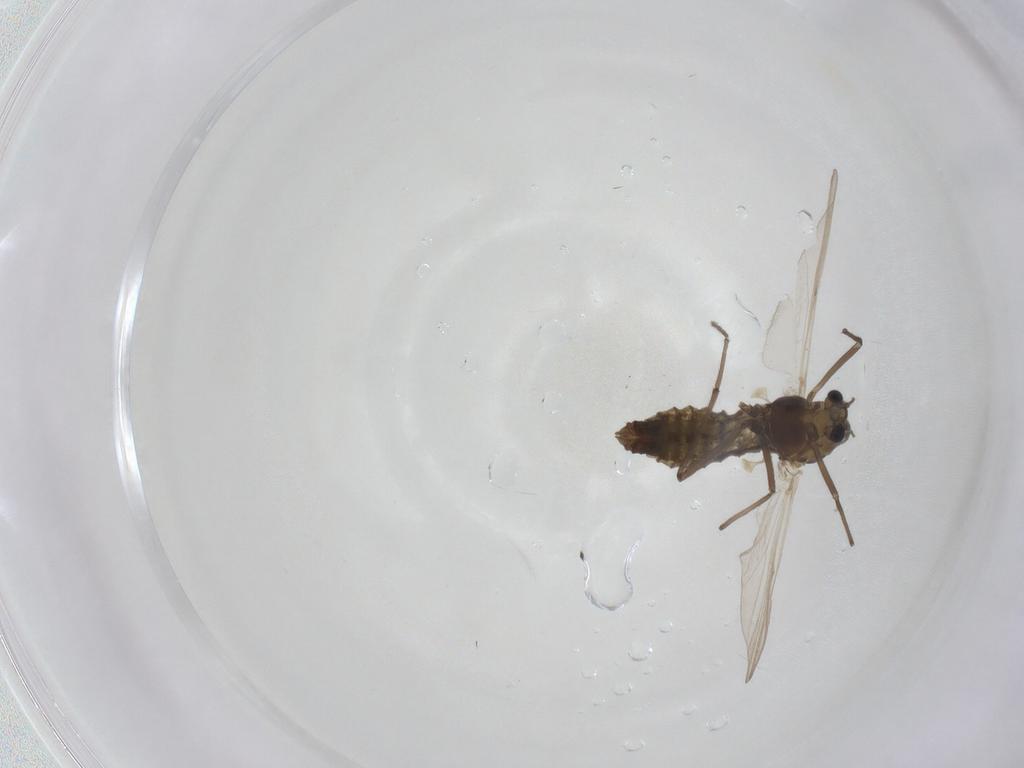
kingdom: Animalia
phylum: Arthropoda
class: Insecta
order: Diptera
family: Chironomidae
